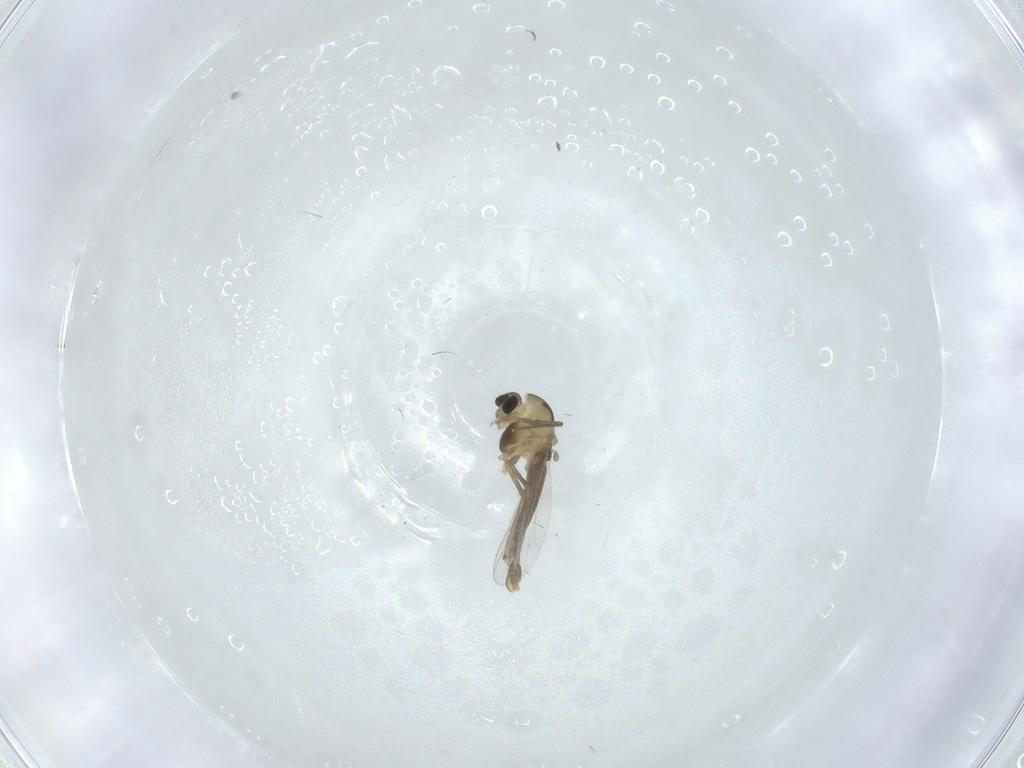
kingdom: Animalia
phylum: Arthropoda
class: Insecta
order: Diptera
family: Chironomidae
